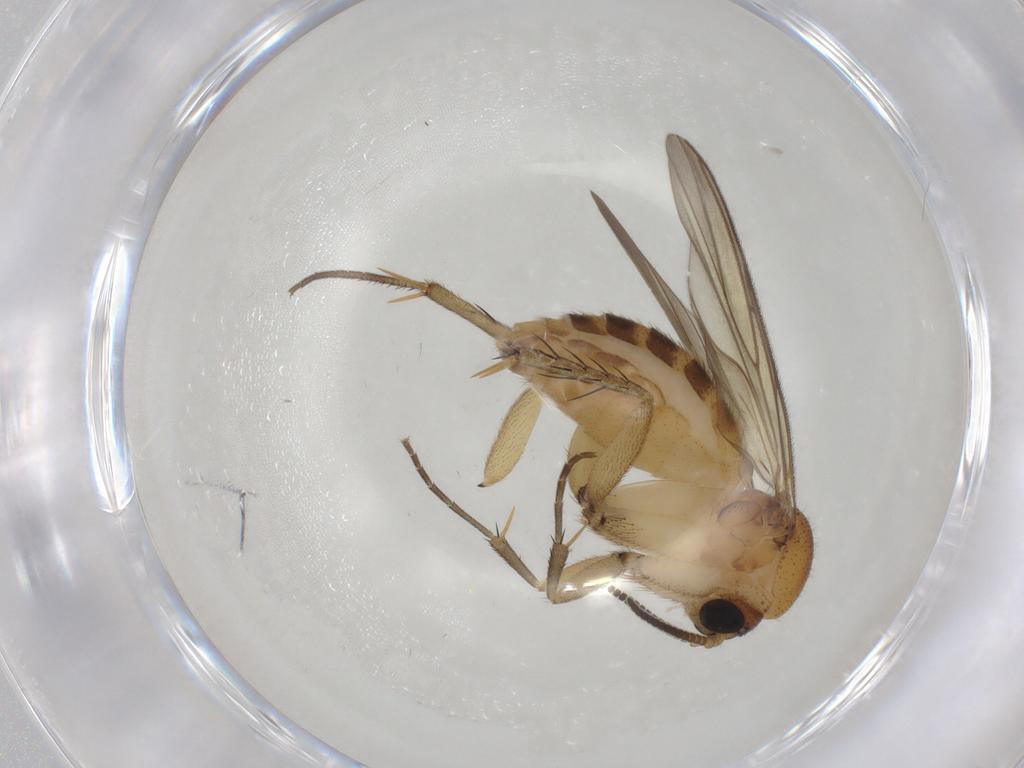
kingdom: Animalia
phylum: Arthropoda
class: Insecta
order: Diptera
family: Mycetophilidae
